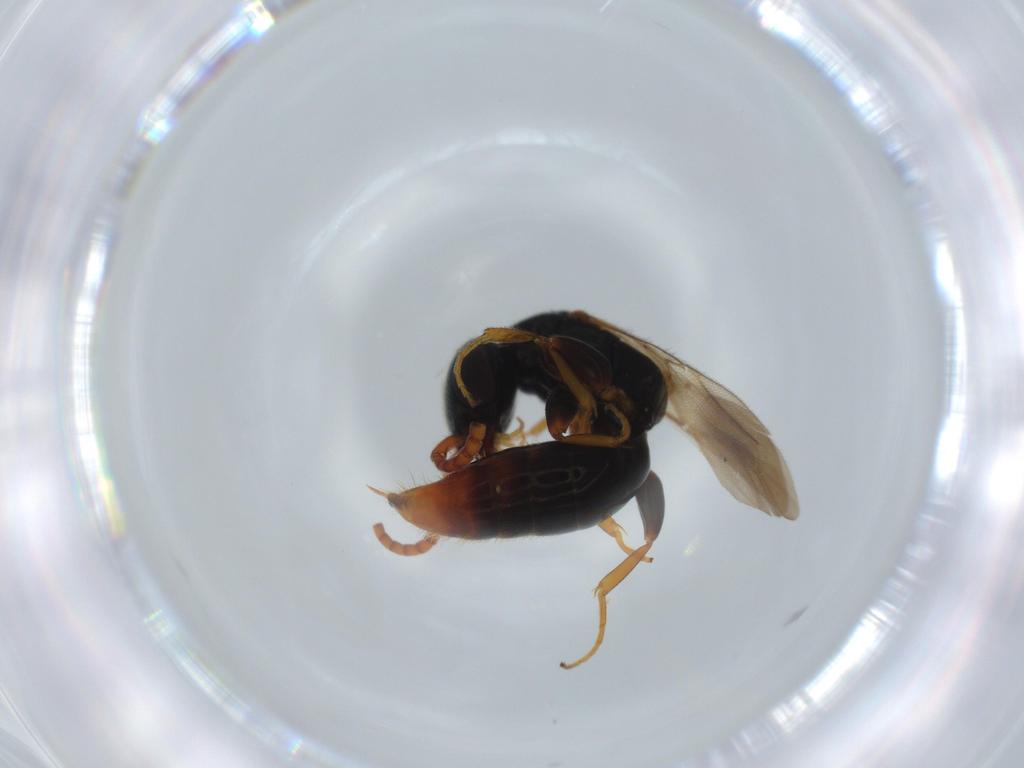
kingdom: Animalia
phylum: Arthropoda
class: Insecta
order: Hymenoptera
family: Bethylidae
